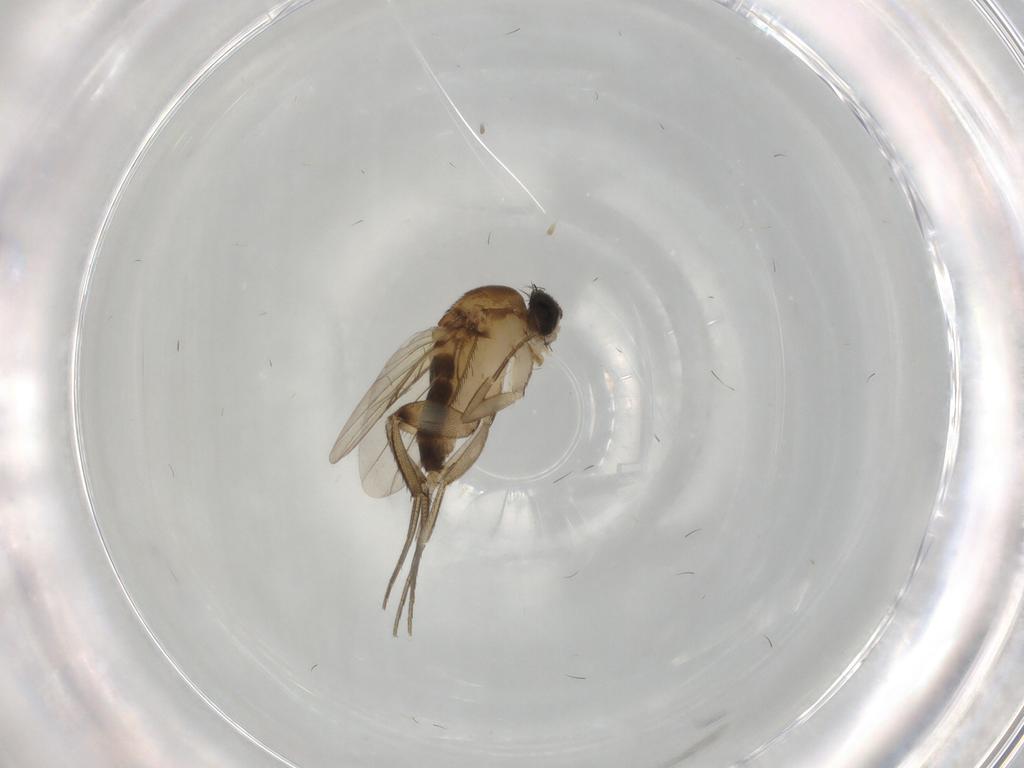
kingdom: Animalia
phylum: Arthropoda
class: Insecta
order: Diptera
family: Phoridae
